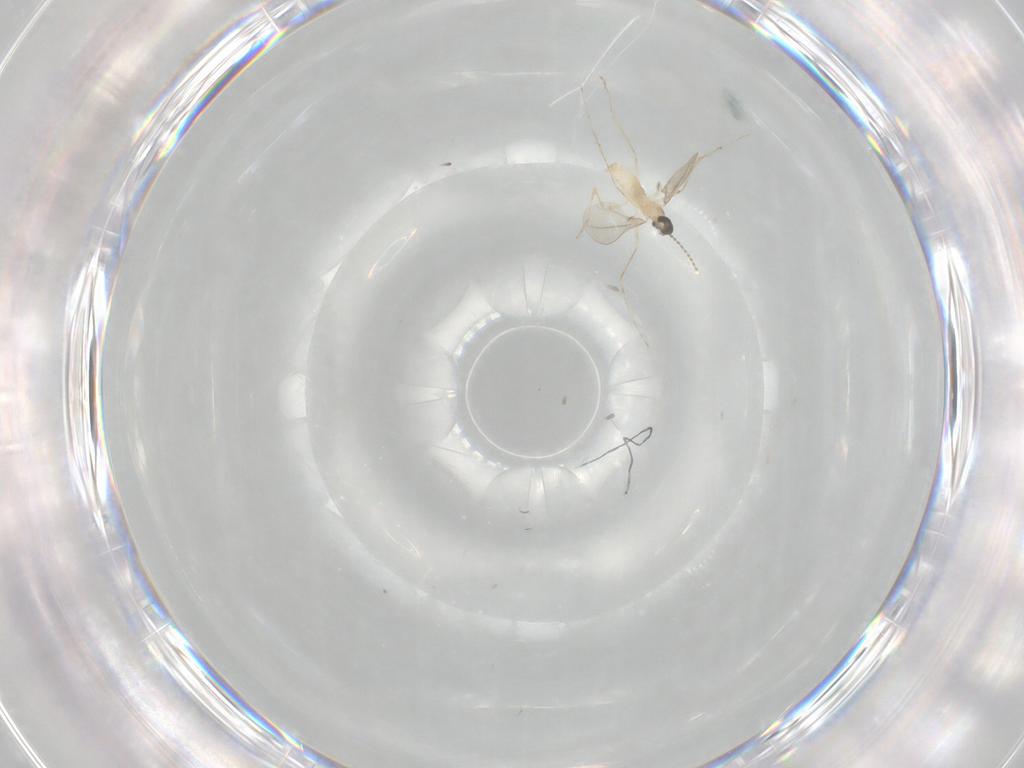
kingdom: Animalia
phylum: Arthropoda
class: Insecta
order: Diptera
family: Cecidomyiidae
